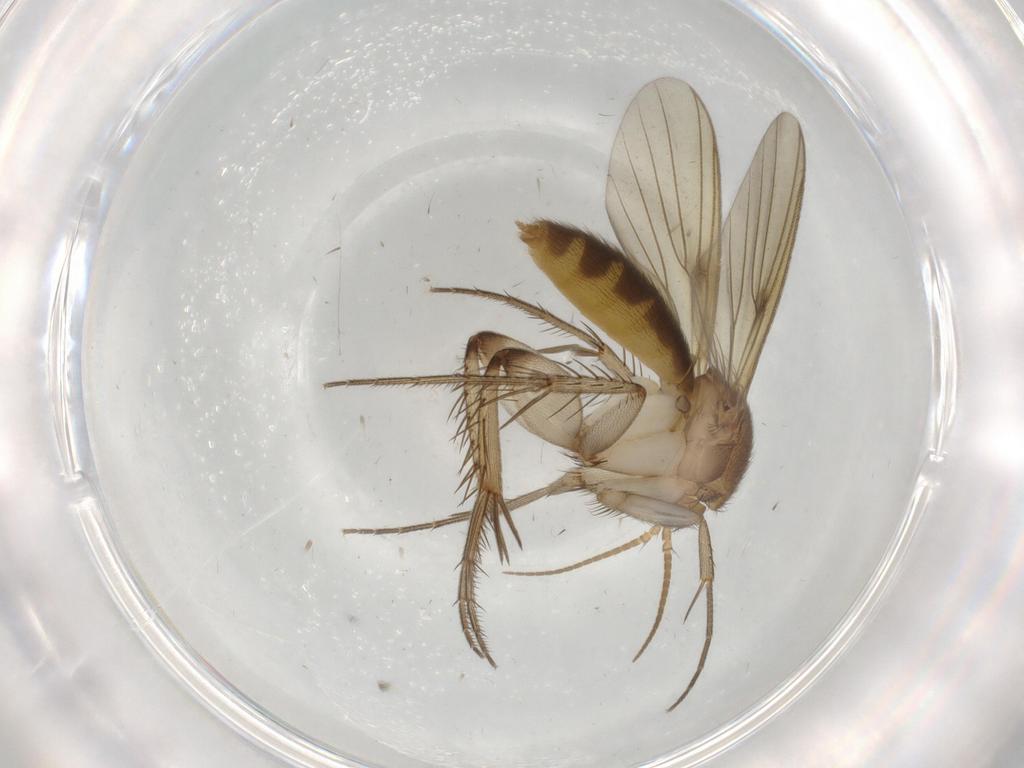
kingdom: Animalia
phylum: Arthropoda
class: Insecta
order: Diptera
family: Mycetophilidae
